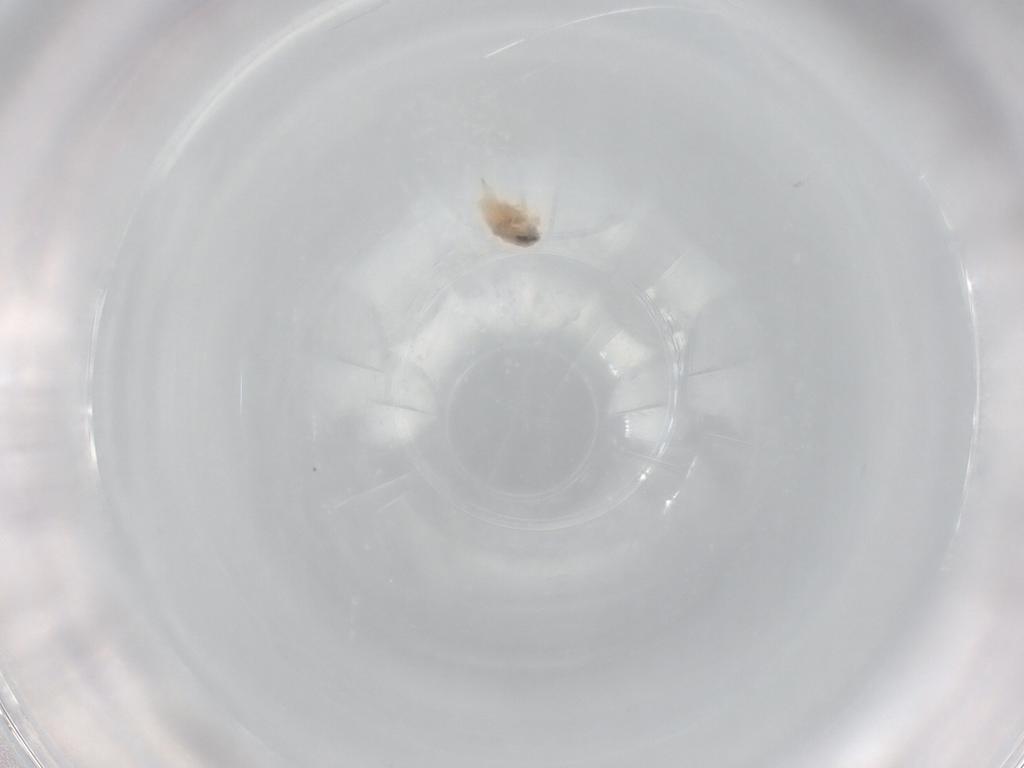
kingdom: Animalia
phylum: Arthropoda
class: Arachnida
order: Trombidiformes
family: Bdellidae
